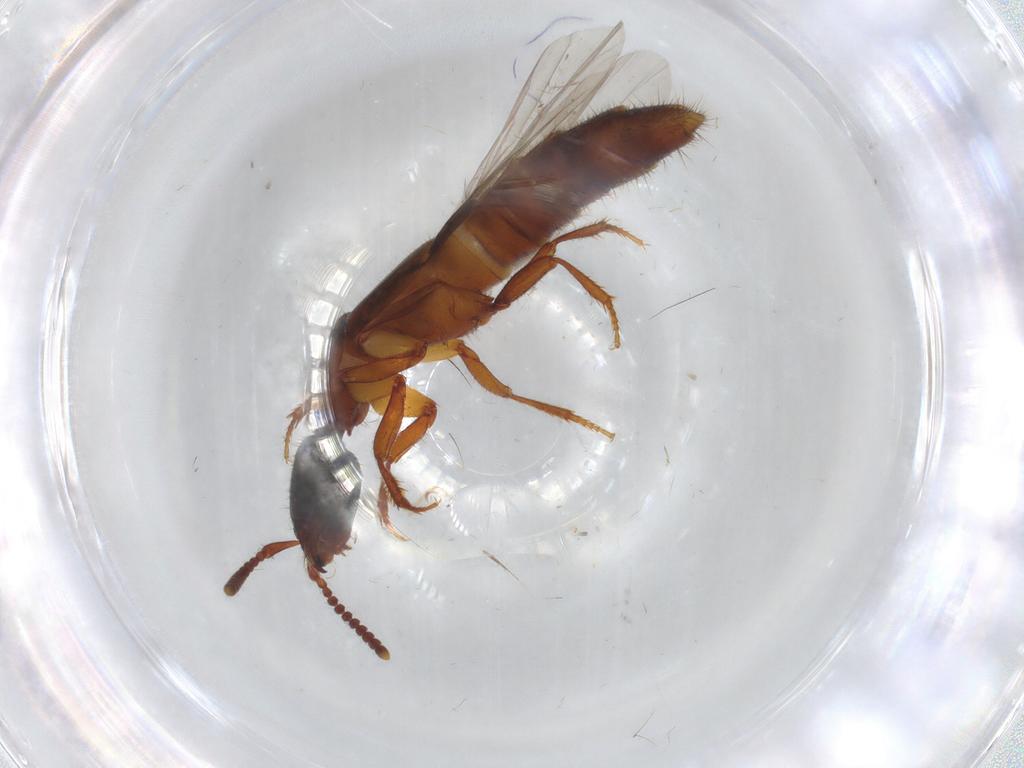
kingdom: Animalia
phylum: Arthropoda
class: Insecta
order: Coleoptera
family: Staphylinidae
